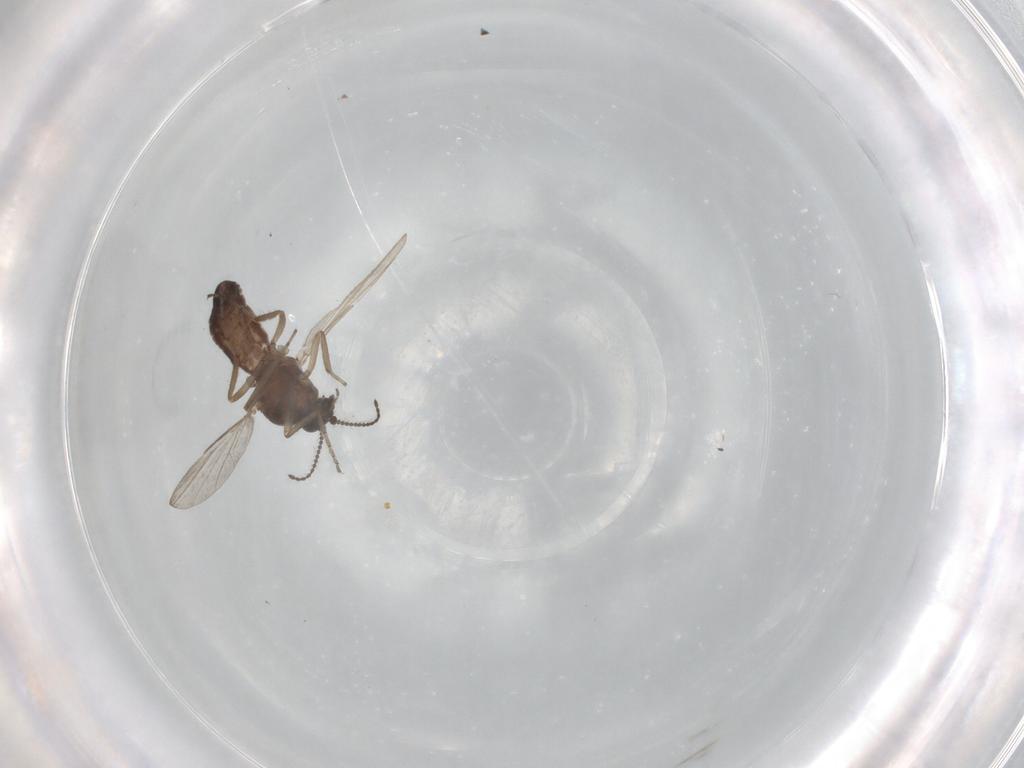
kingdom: Animalia
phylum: Arthropoda
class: Insecta
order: Diptera
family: Ceratopogonidae
